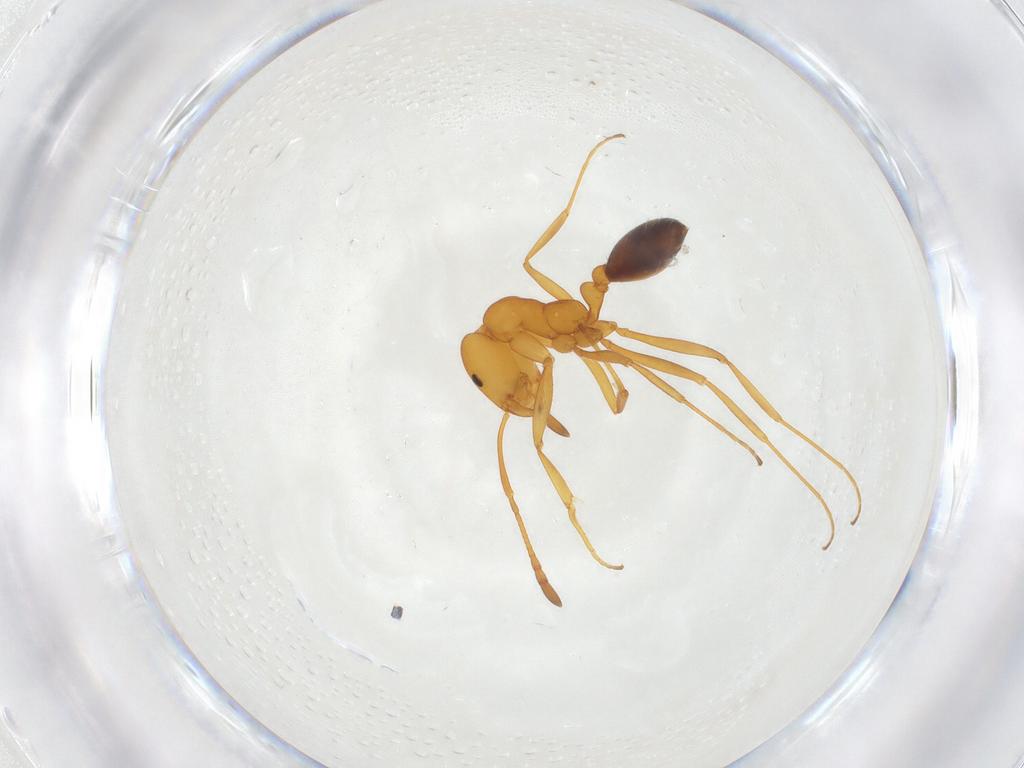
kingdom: Animalia
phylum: Arthropoda
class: Insecta
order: Hymenoptera
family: Formicidae
